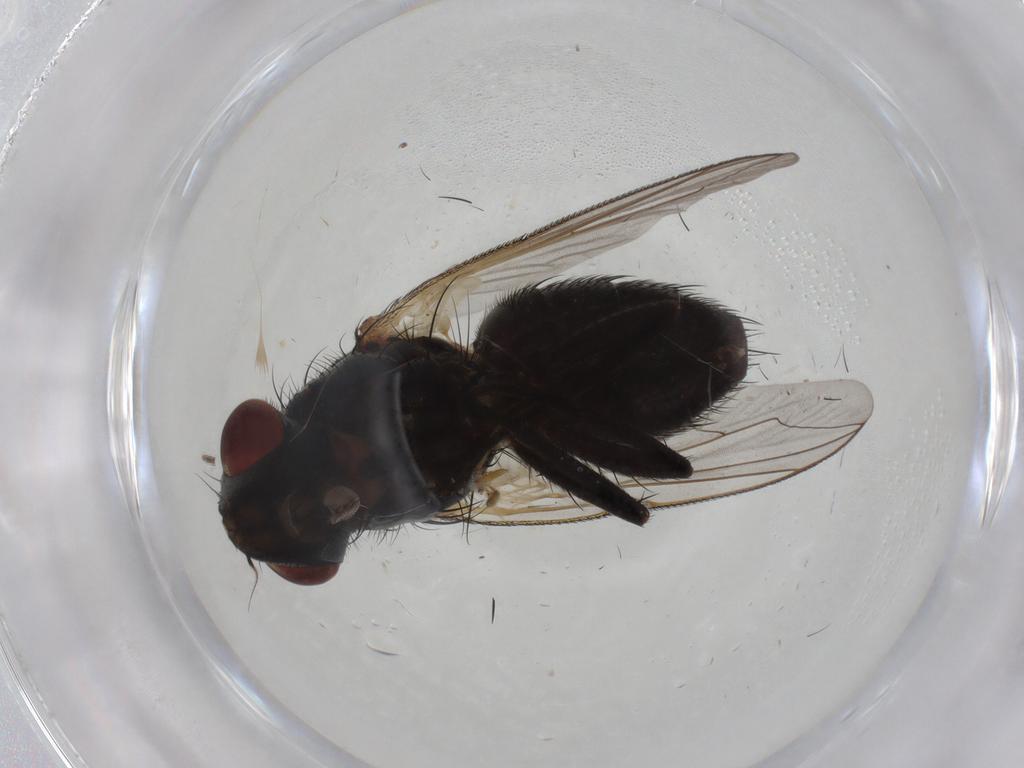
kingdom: Animalia
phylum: Arthropoda
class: Insecta
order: Diptera
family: Sarcophagidae
